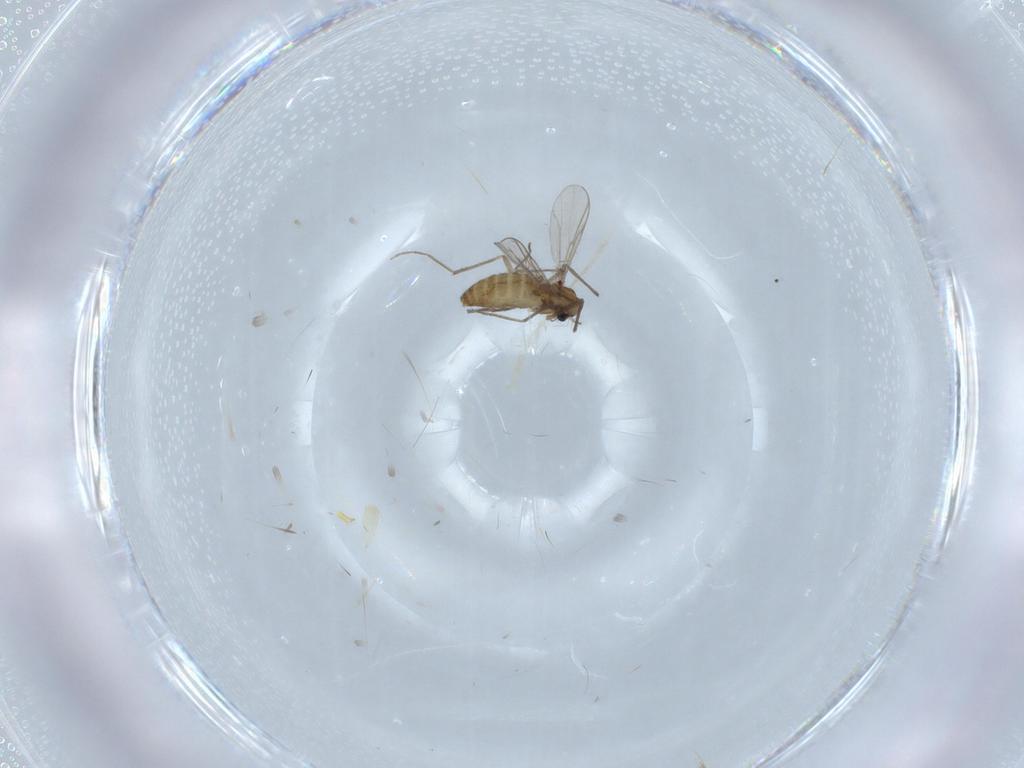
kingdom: Animalia
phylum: Arthropoda
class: Insecta
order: Diptera
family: Chironomidae
